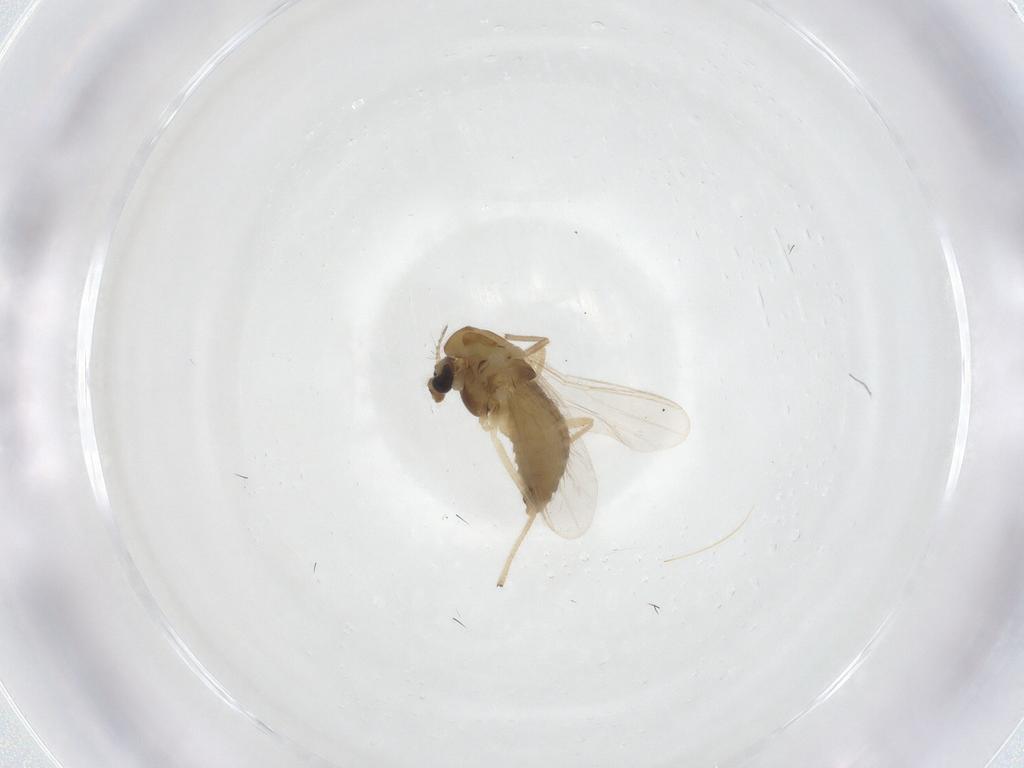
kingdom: Animalia
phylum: Arthropoda
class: Insecta
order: Diptera
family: Chironomidae
